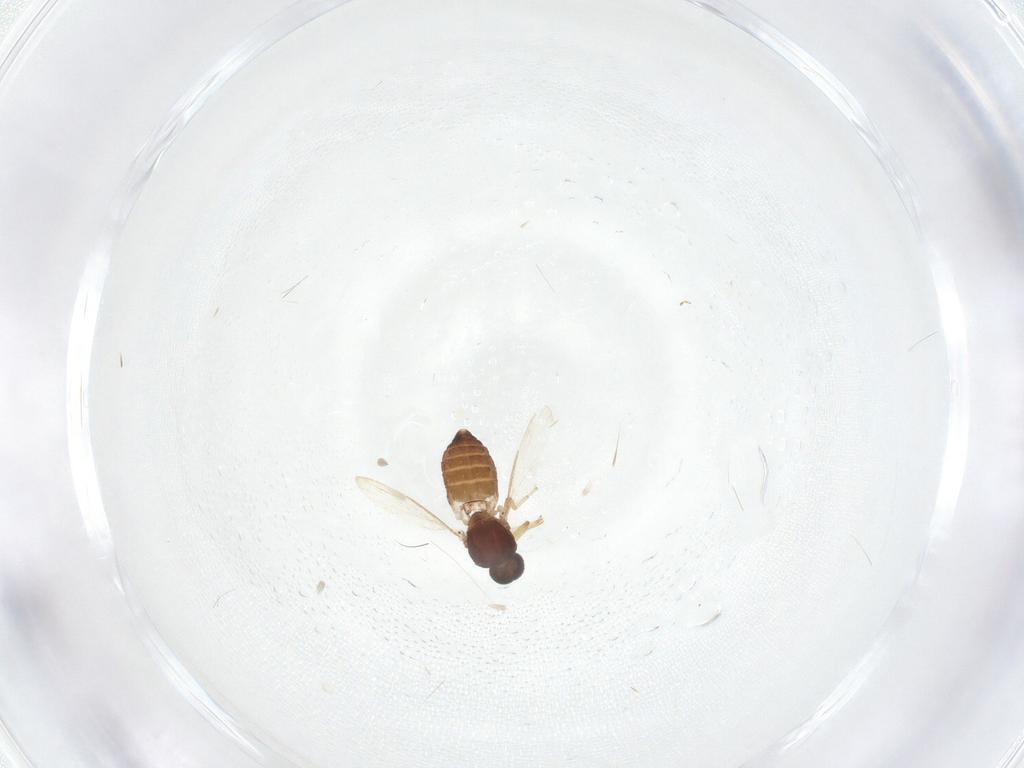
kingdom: Animalia
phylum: Arthropoda
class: Insecta
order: Diptera
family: Ceratopogonidae
